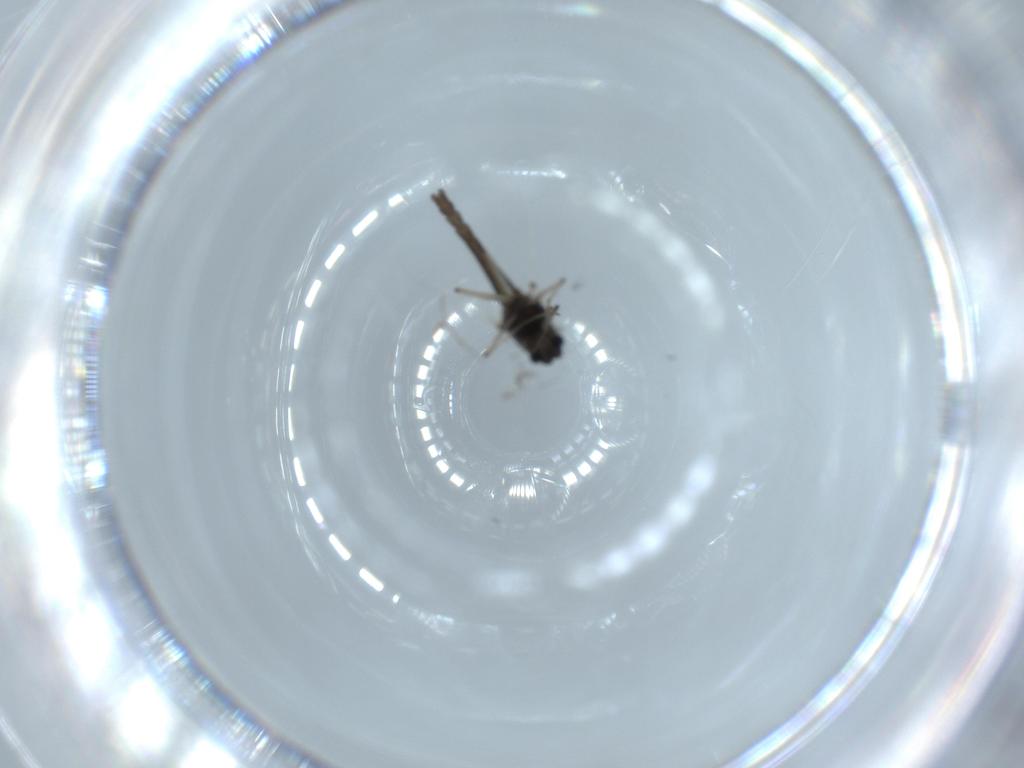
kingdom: Animalia
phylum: Arthropoda
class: Insecta
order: Diptera
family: Chironomidae
